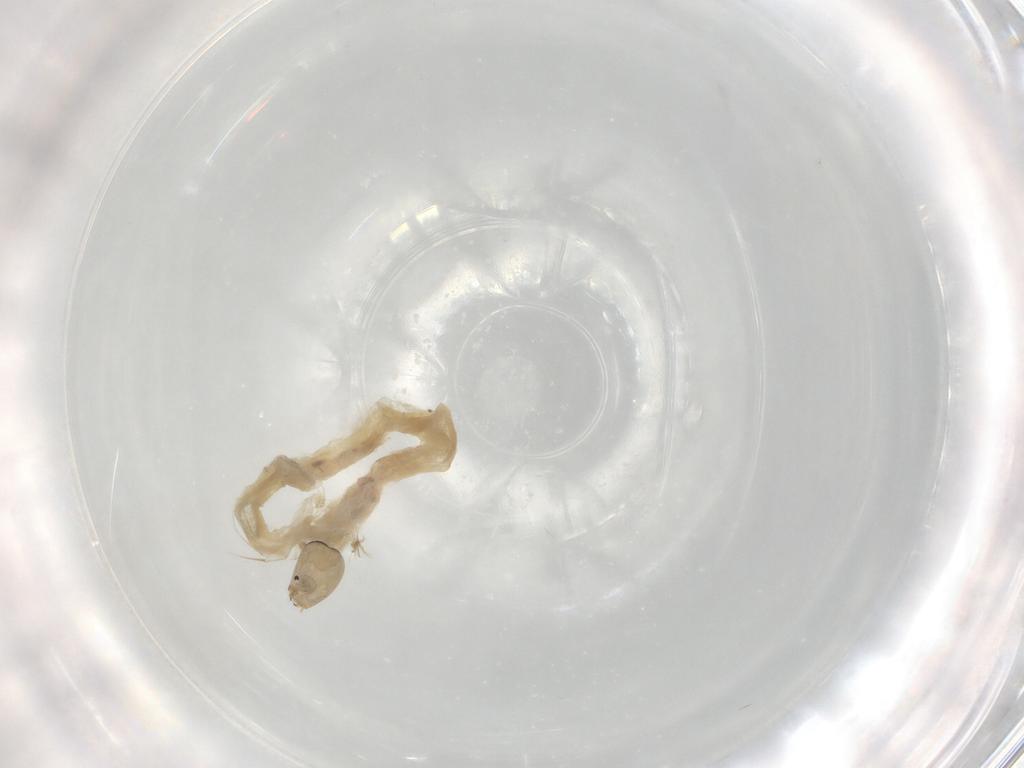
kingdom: Animalia
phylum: Arthropoda
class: Insecta
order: Diptera
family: Chironomidae
